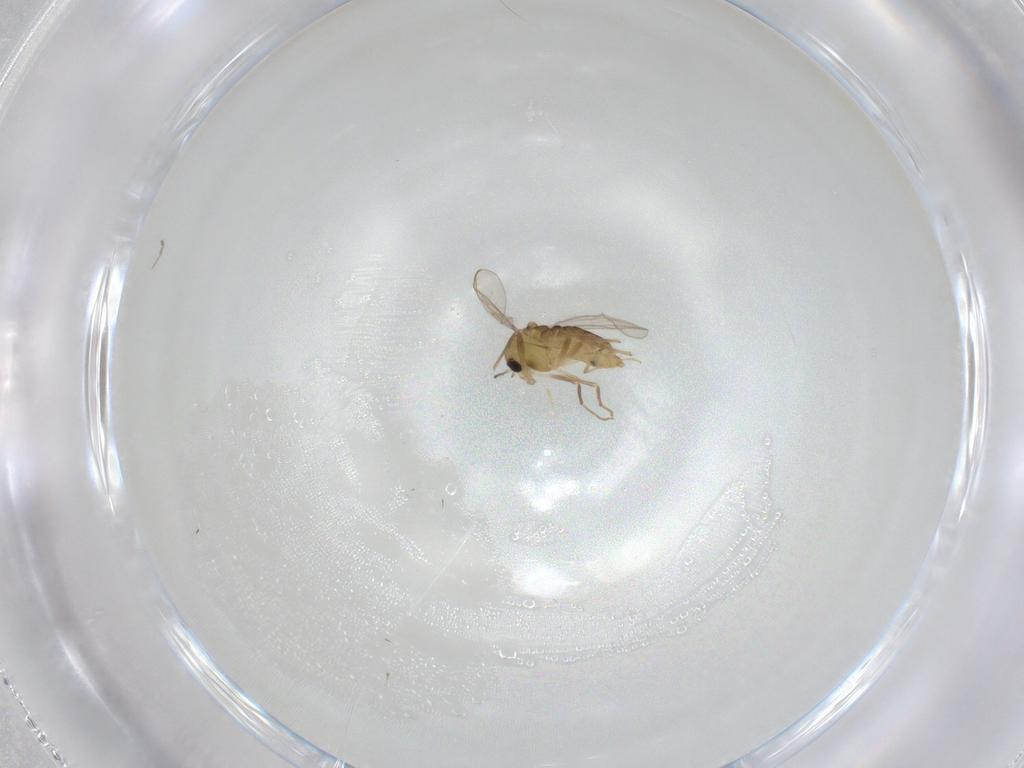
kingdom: Animalia
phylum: Arthropoda
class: Insecta
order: Diptera
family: Chironomidae
